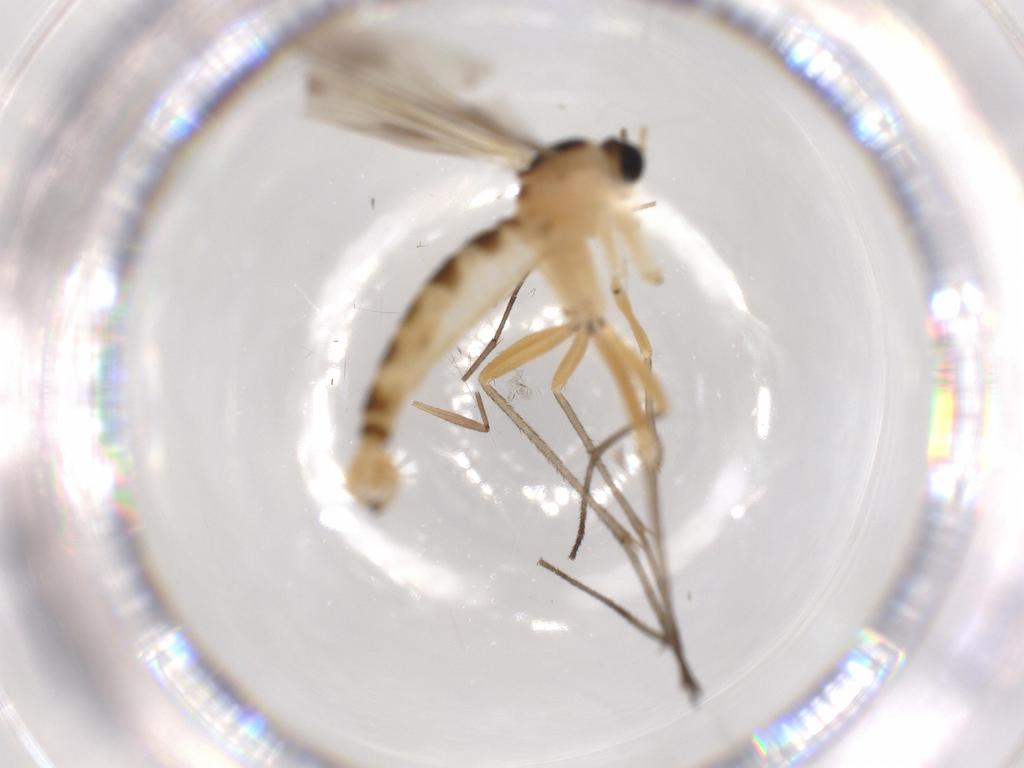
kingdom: Animalia
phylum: Arthropoda
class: Insecta
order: Diptera
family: Sciaridae
